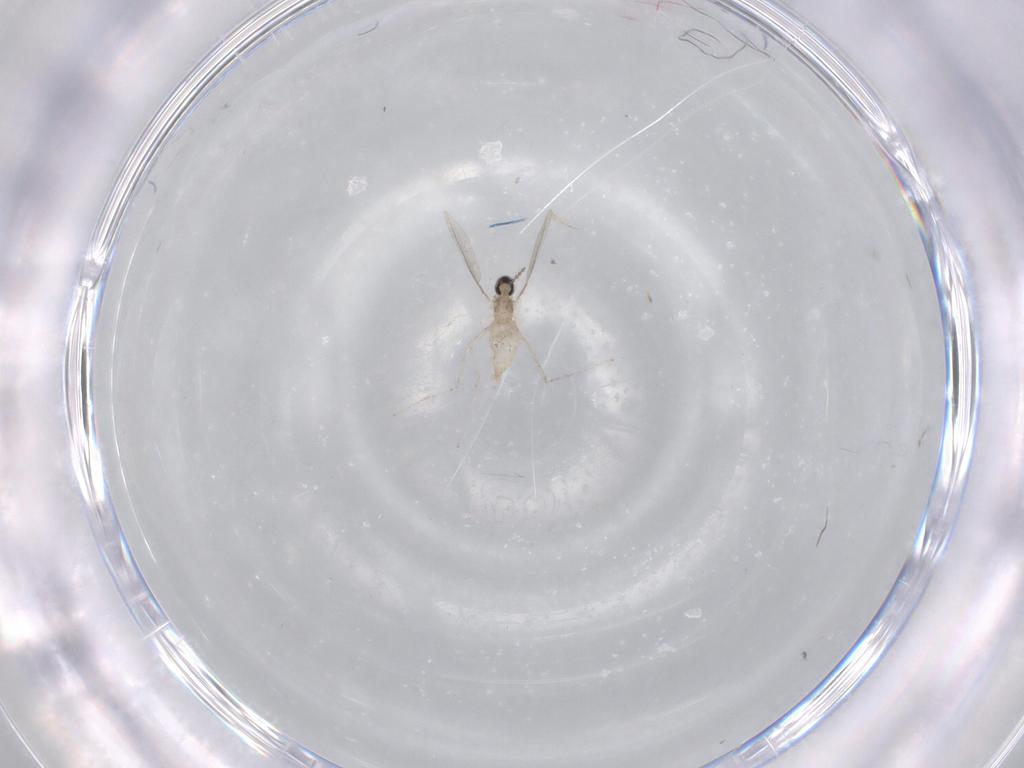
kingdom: Animalia
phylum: Arthropoda
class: Insecta
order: Diptera
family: Cecidomyiidae
